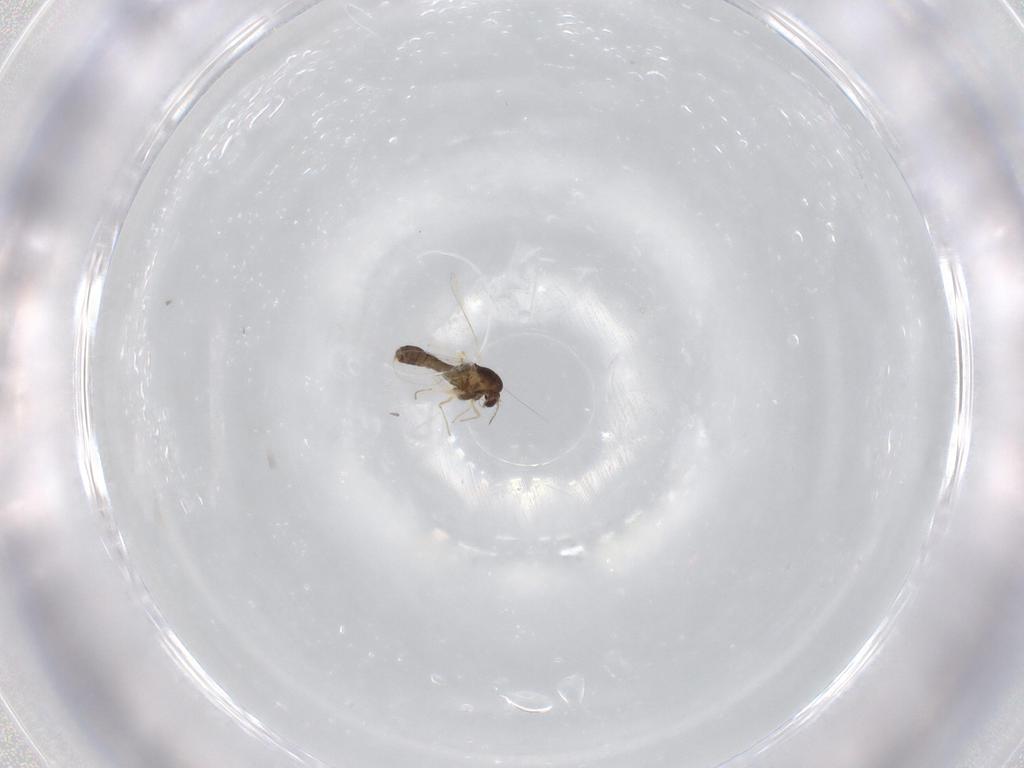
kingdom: Animalia
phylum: Arthropoda
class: Insecta
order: Diptera
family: Chironomidae
